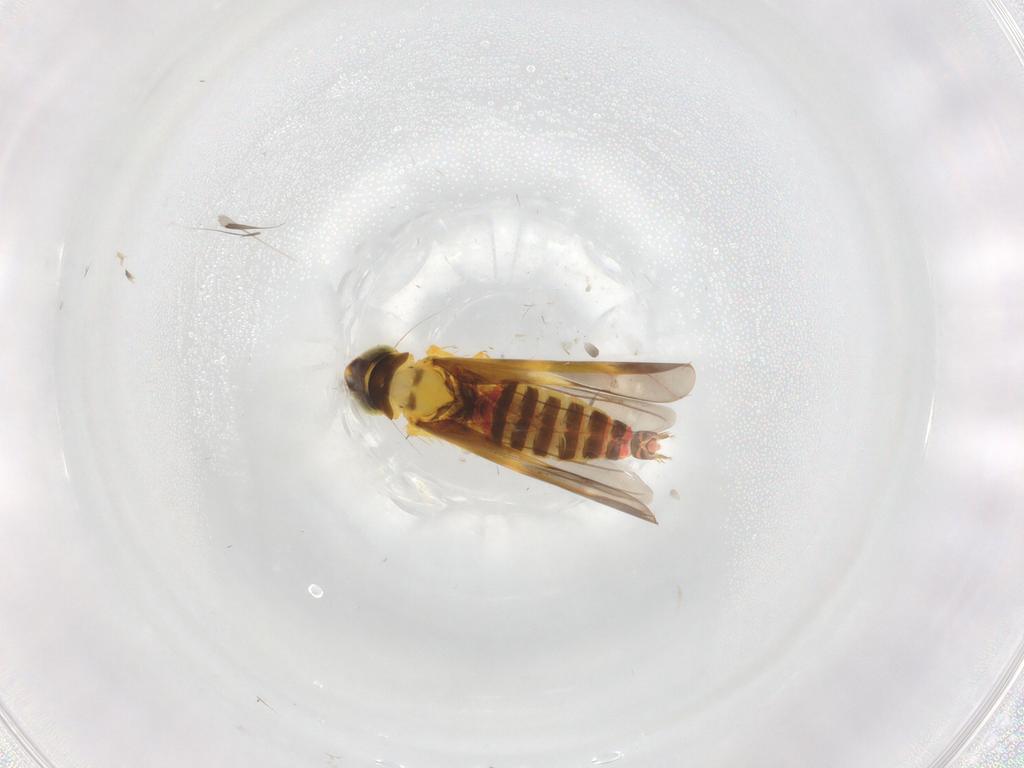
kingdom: Animalia
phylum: Arthropoda
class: Insecta
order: Hemiptera
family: Cicadellidae
